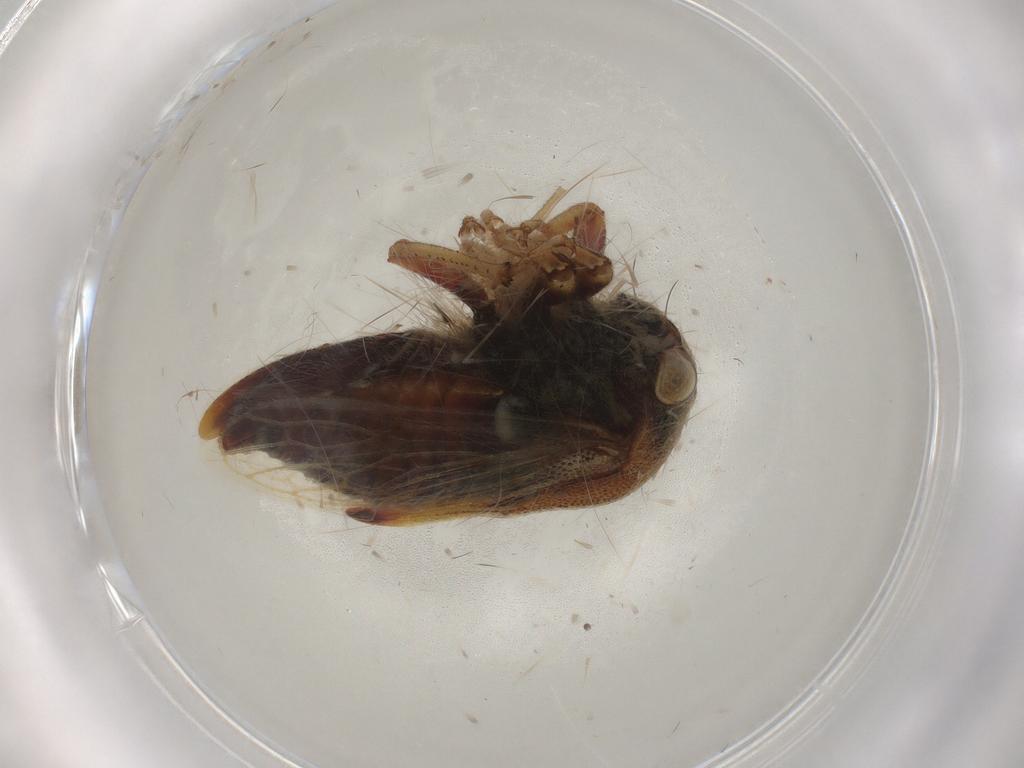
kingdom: Animalia
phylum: Arthropoda
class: Insecta
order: Hemiptera
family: Membracidae
